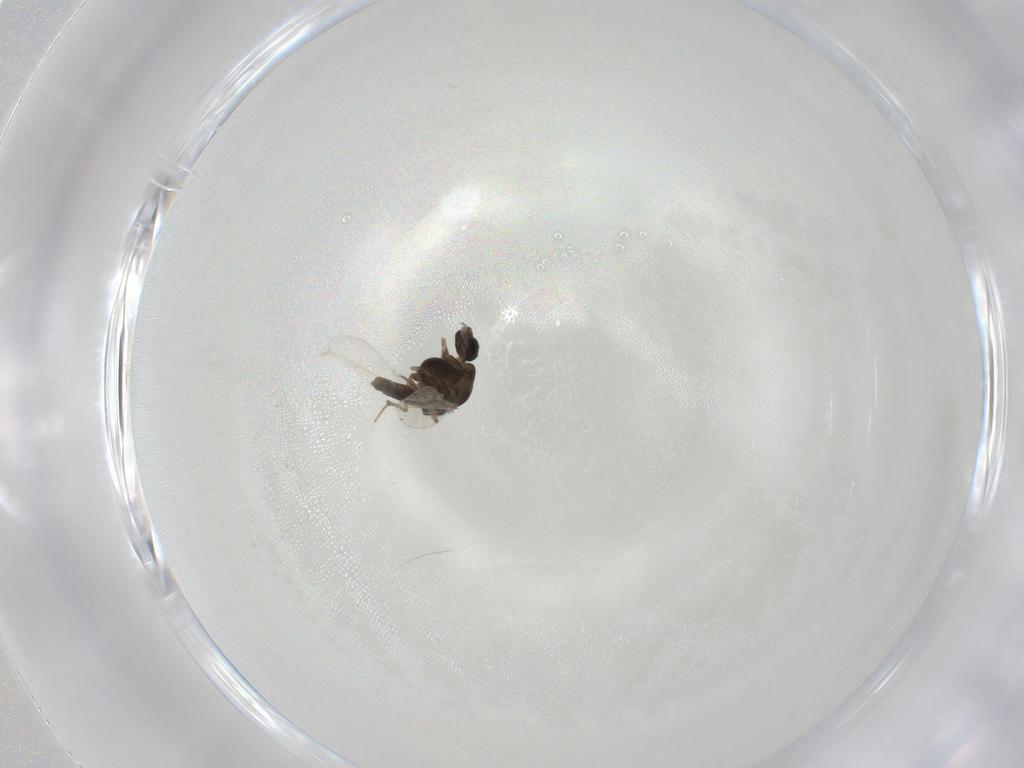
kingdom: Animalia
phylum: Arthropoda
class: Insecta
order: Diptera
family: Chironomidae
